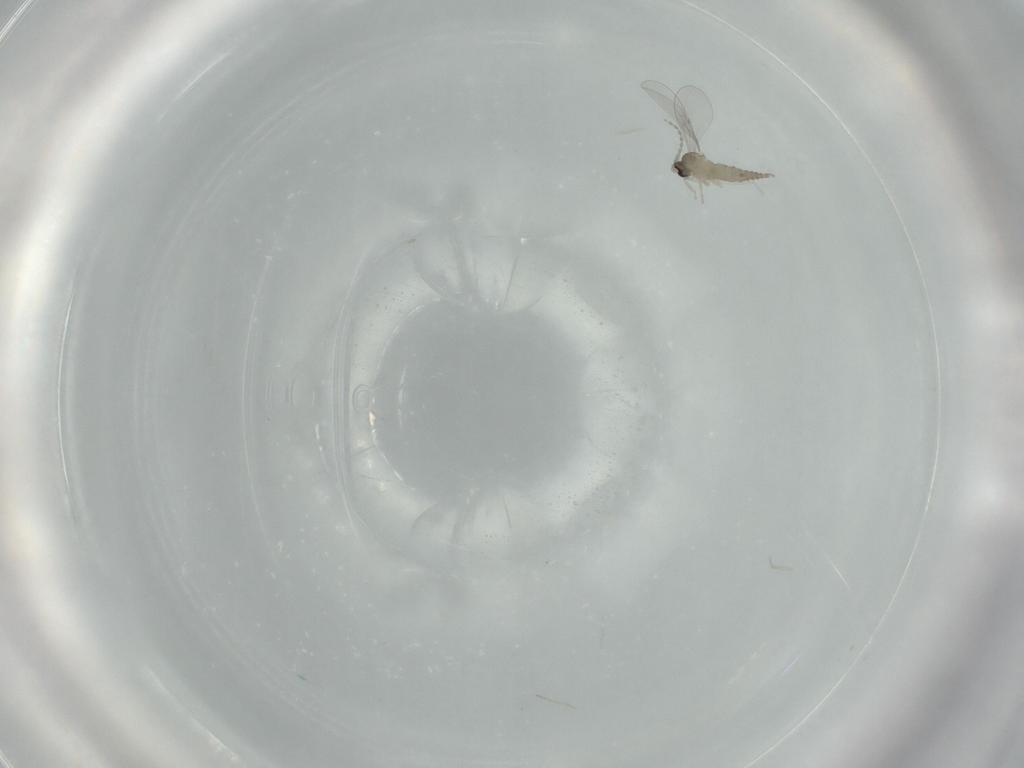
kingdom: Animalia
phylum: Arthropoda
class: Insecta
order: Diptera
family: Cecidomyiidae
